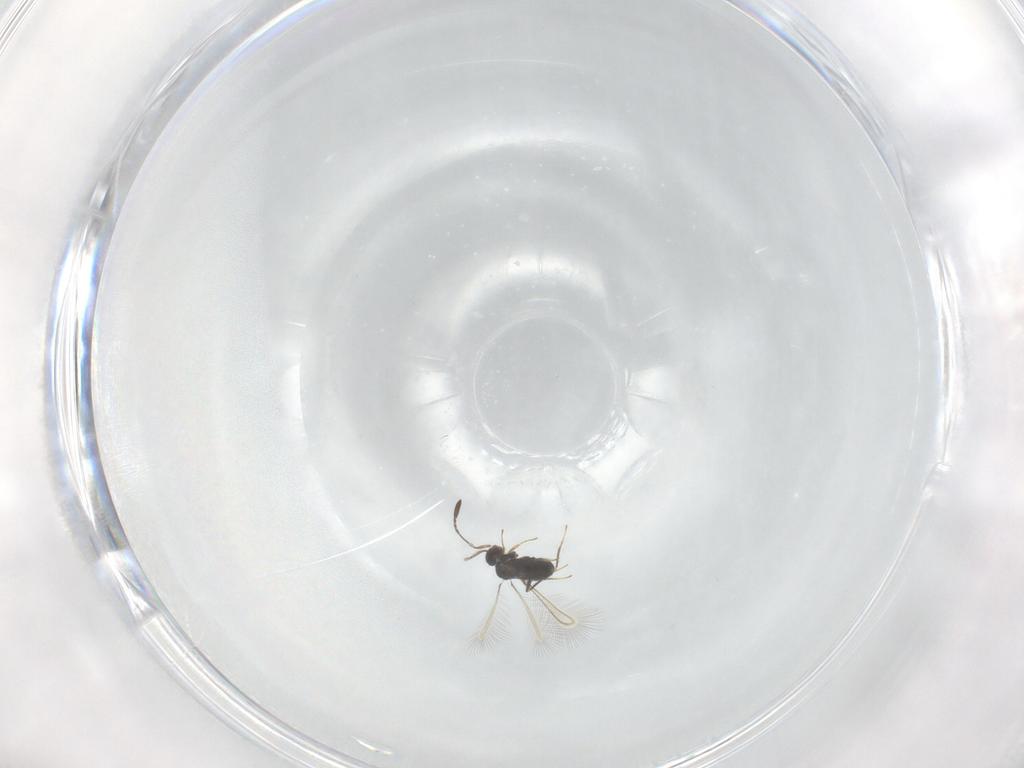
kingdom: Animalia
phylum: Arthropoda
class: Insecta
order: Hymenoptera
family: Mymaridae
